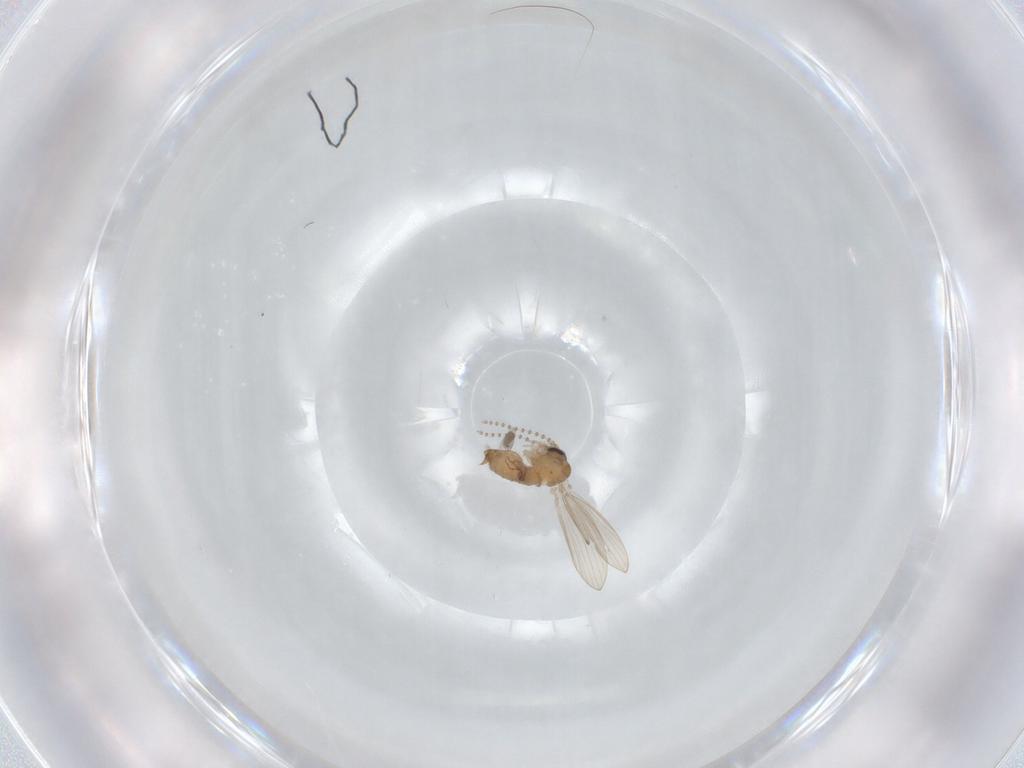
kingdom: Animalia
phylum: Arthropoda
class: Insecta
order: Diptera
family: Psychodidae
